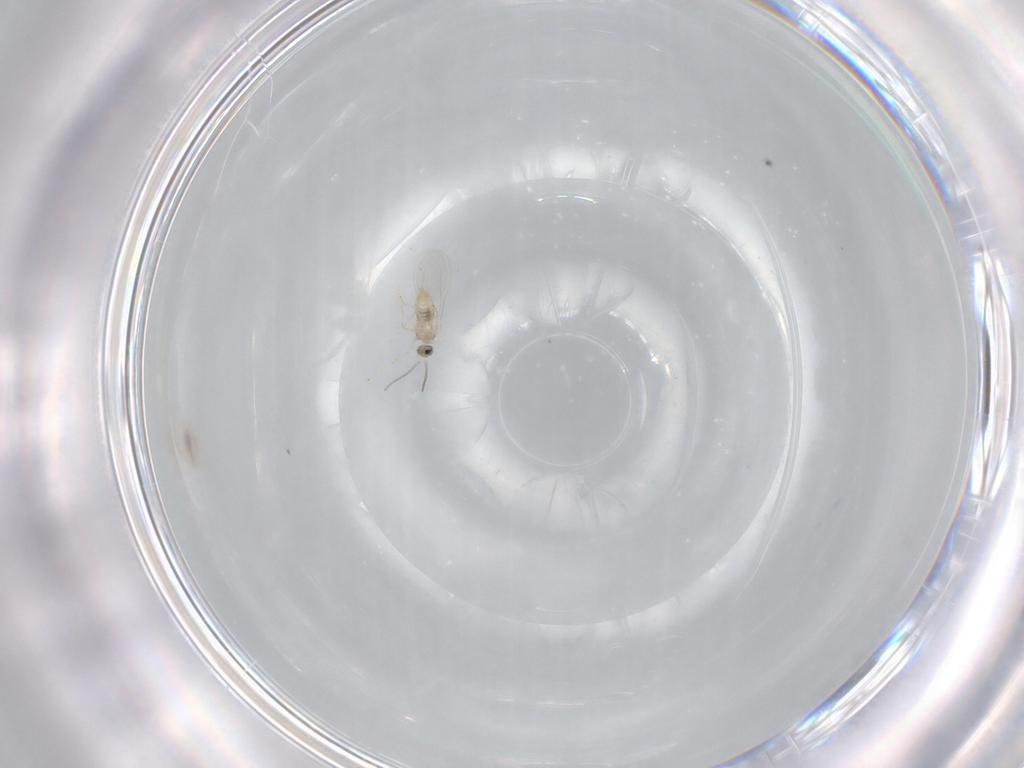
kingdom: Animalia
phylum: Arthropoda
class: Insecta
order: Diptera
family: Cecidomyiidae
